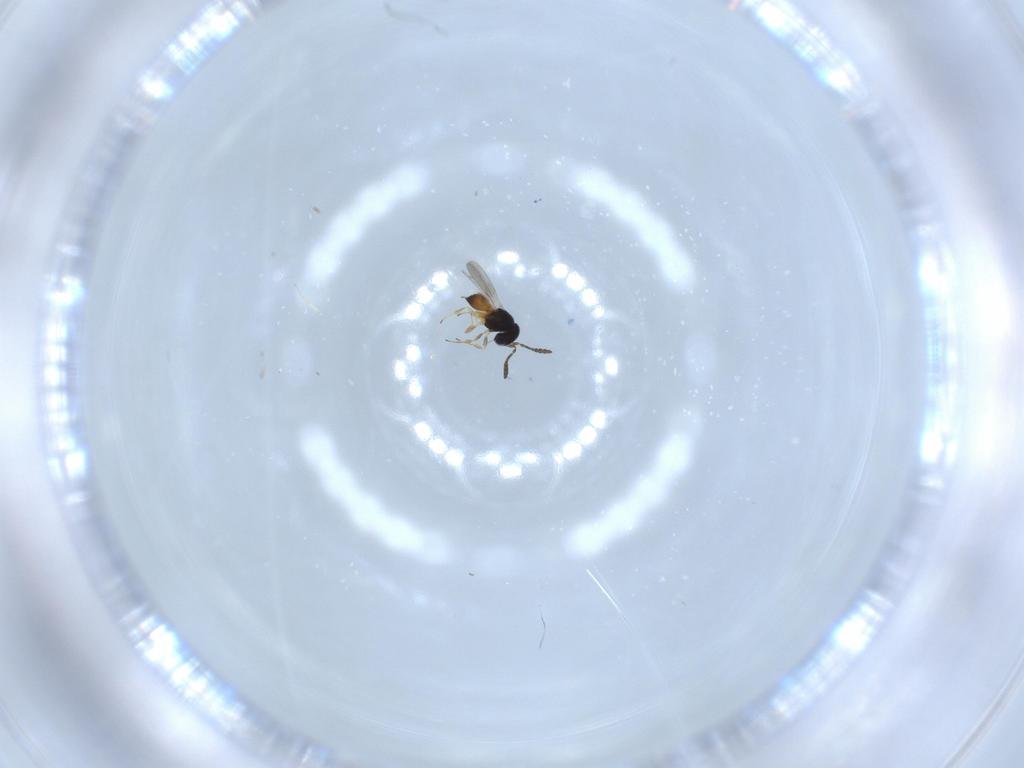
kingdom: Animalia
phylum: Arthropoda
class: Insecta
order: Hymenoptera
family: Scelionidae
